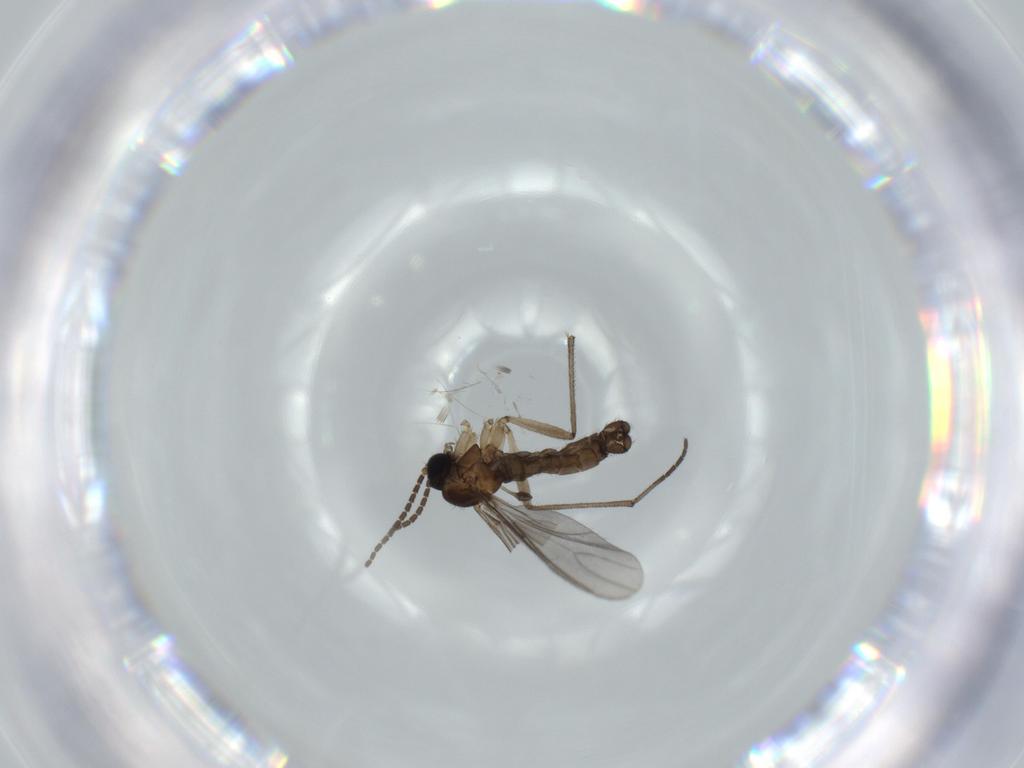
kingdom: Animalia
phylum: Arthropoda
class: Insecta
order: Diptera
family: Sciaridae
